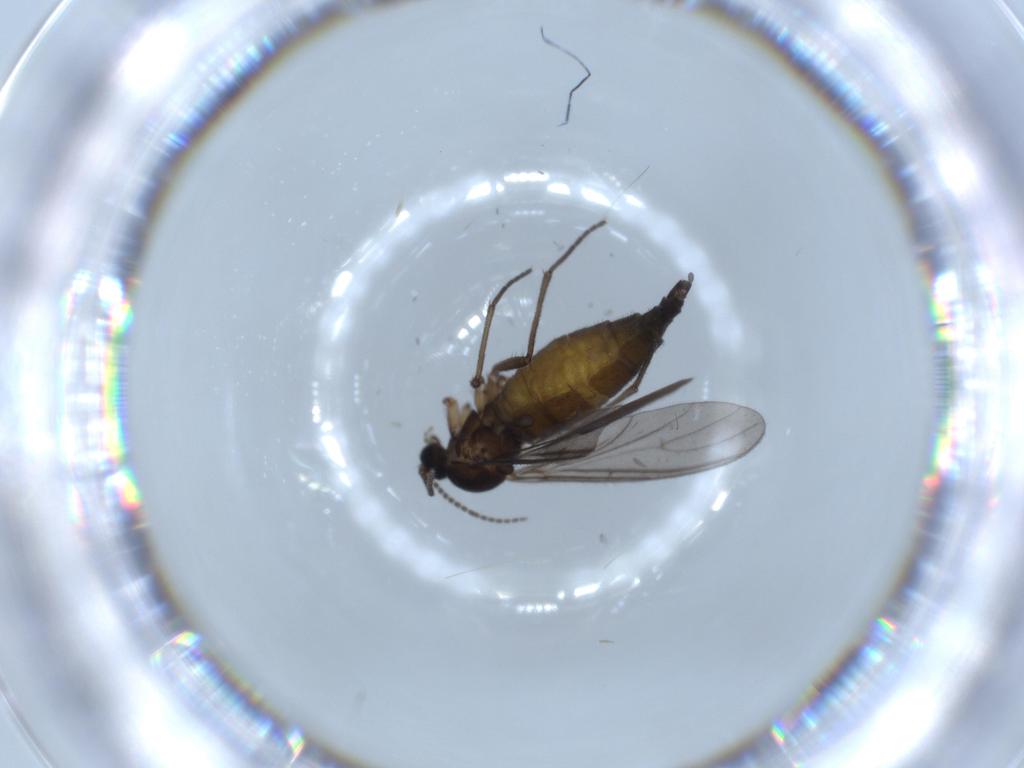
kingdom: Animalia
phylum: Arthropoda
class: Insecta
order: Diptera
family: Sciaridae
